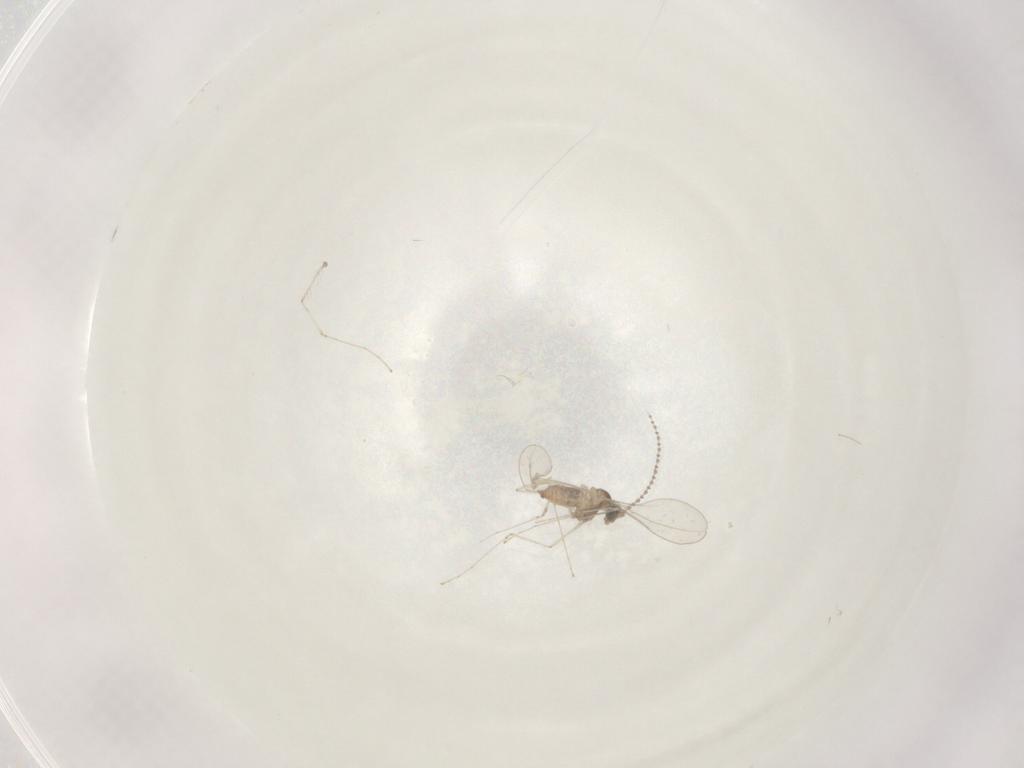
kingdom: Animalia
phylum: Arthropoda
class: Insecta
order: Diptera
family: Cecidomyiidae
